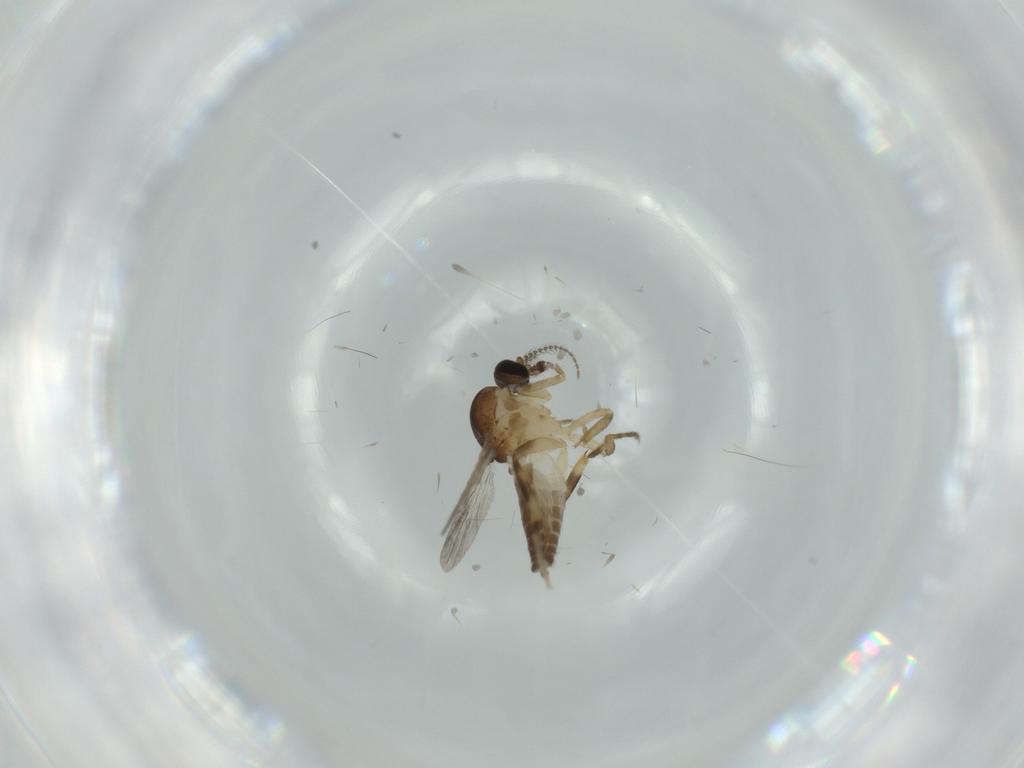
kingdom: Animalia
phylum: Arthropoda
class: Insecta
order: Diptera
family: Ceratopogonidae
